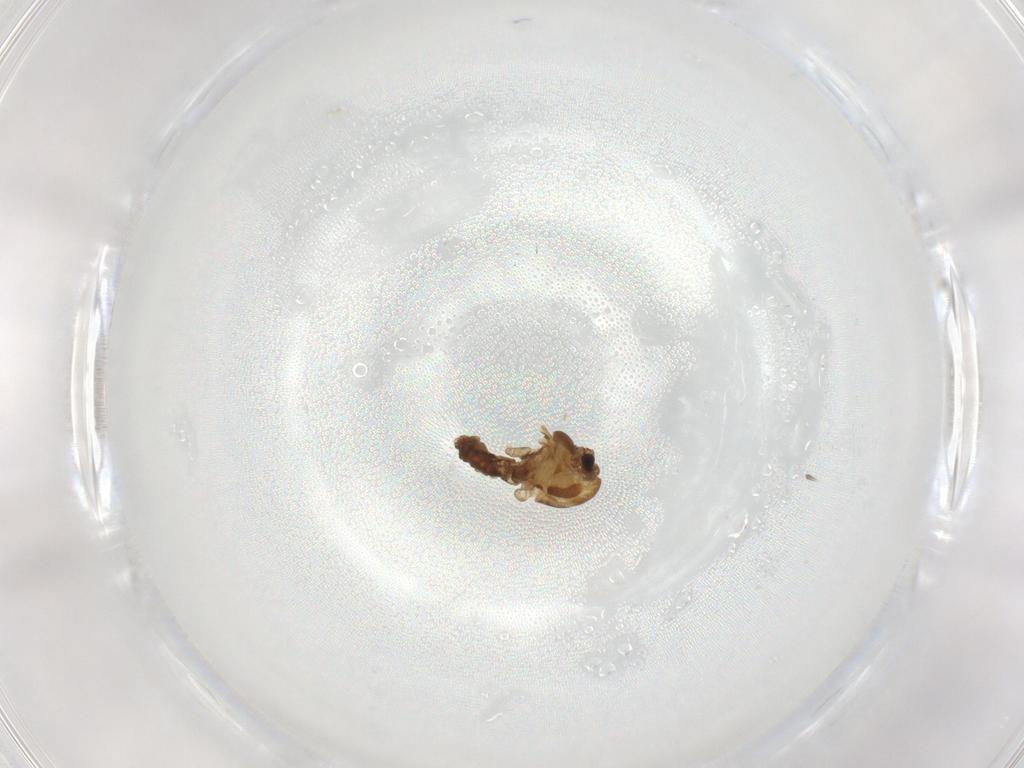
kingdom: Animalia
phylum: Arthropoda
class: Insecta
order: Diptera
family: Chironomidae
